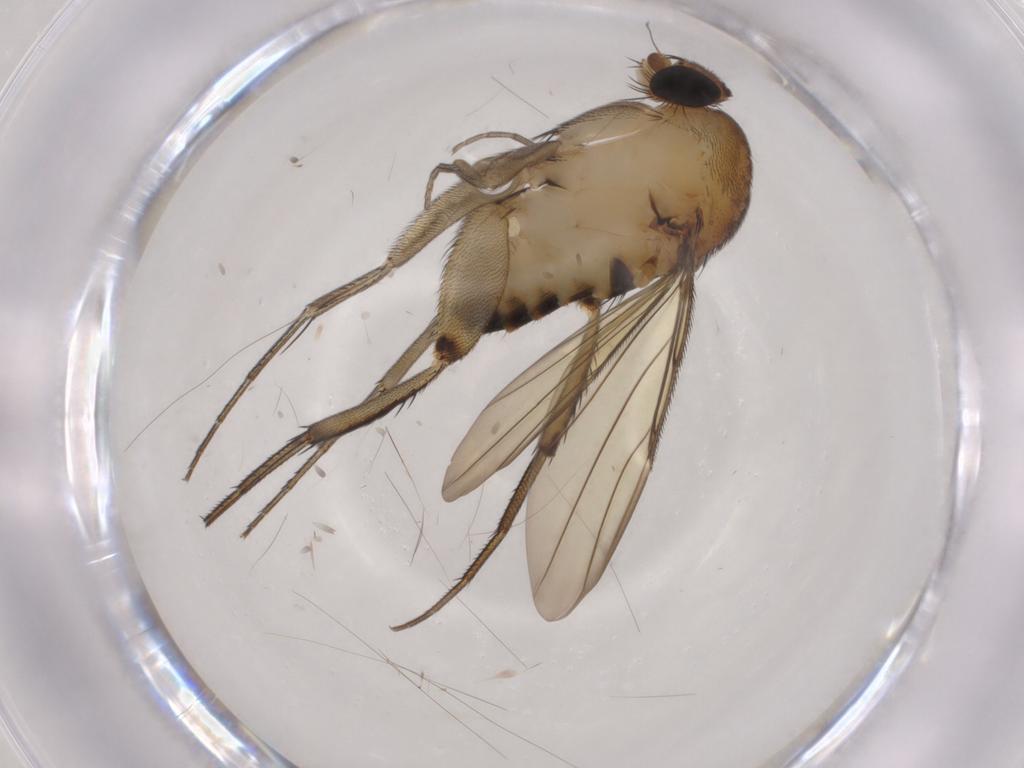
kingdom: Animalia
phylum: Arthropoda
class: Insecta
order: Diptera
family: Phoridae
